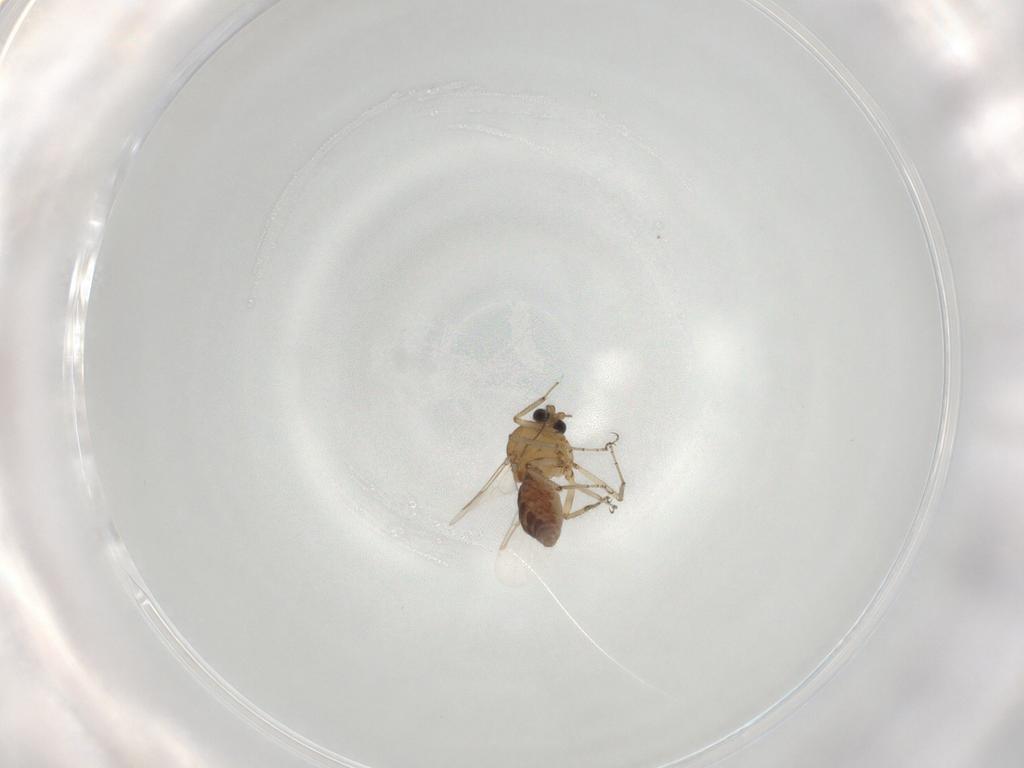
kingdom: Animalia
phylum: Arthropoda
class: Insecta
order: Diptera
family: Ceratopogonidae
